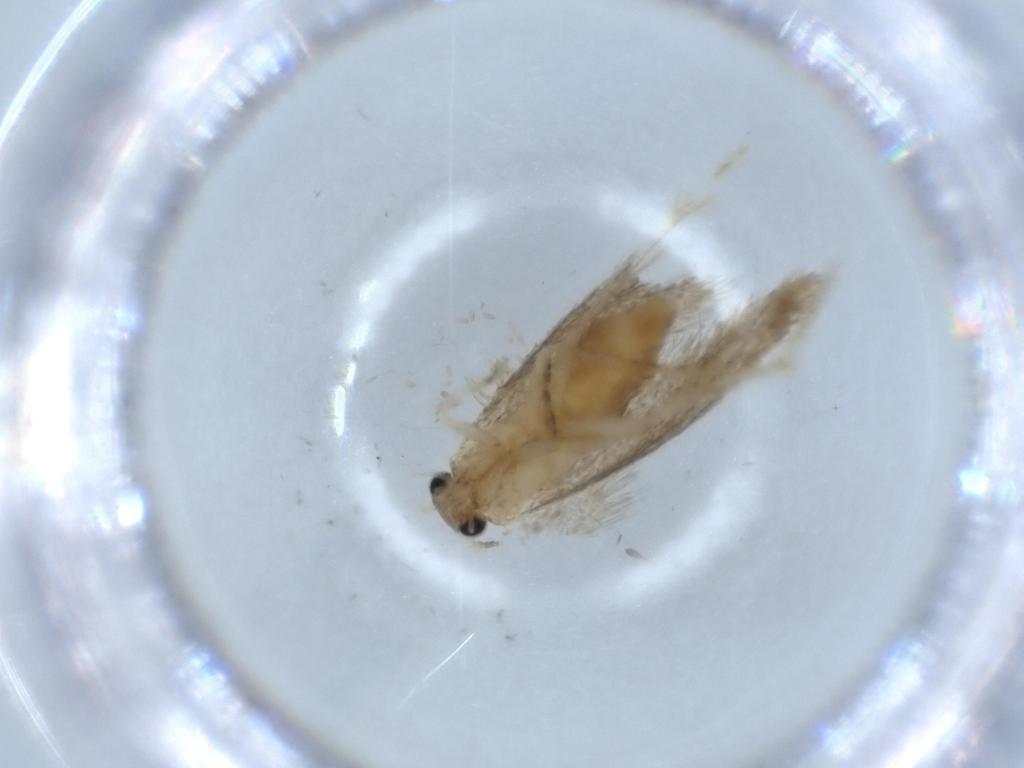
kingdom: Animalia
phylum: Arthropoda
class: Insecta
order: Lepidoptera
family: Tineidae
